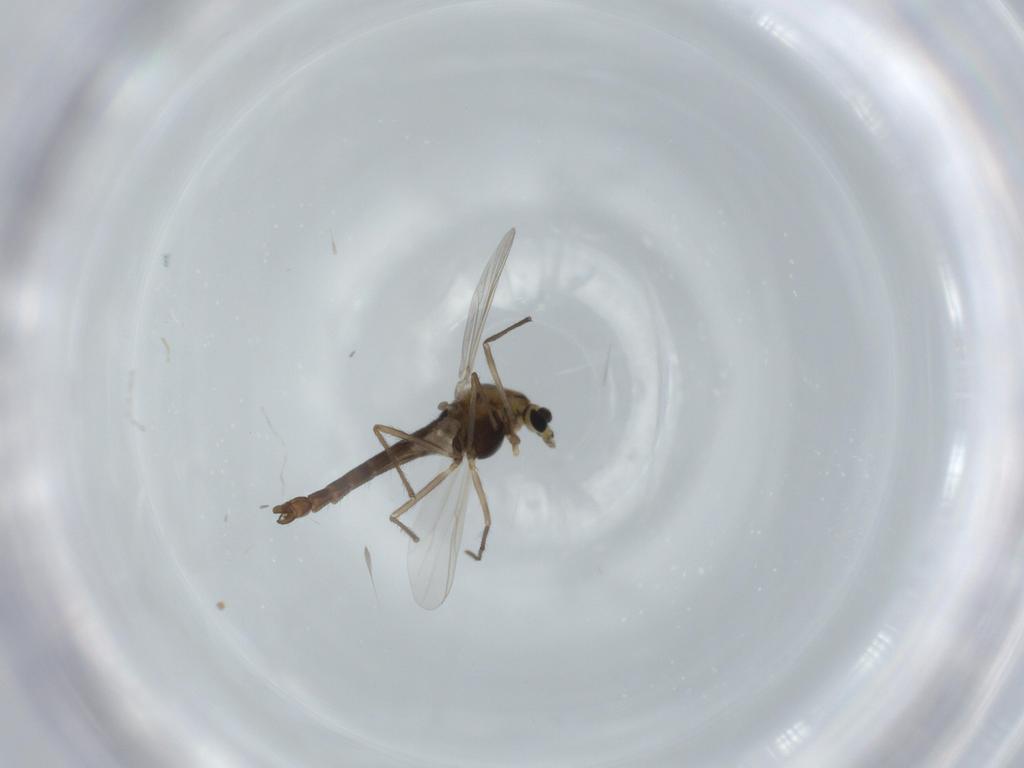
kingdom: Animalia
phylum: Arthropoda
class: Insecta
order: Diptera
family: Chironomidae
